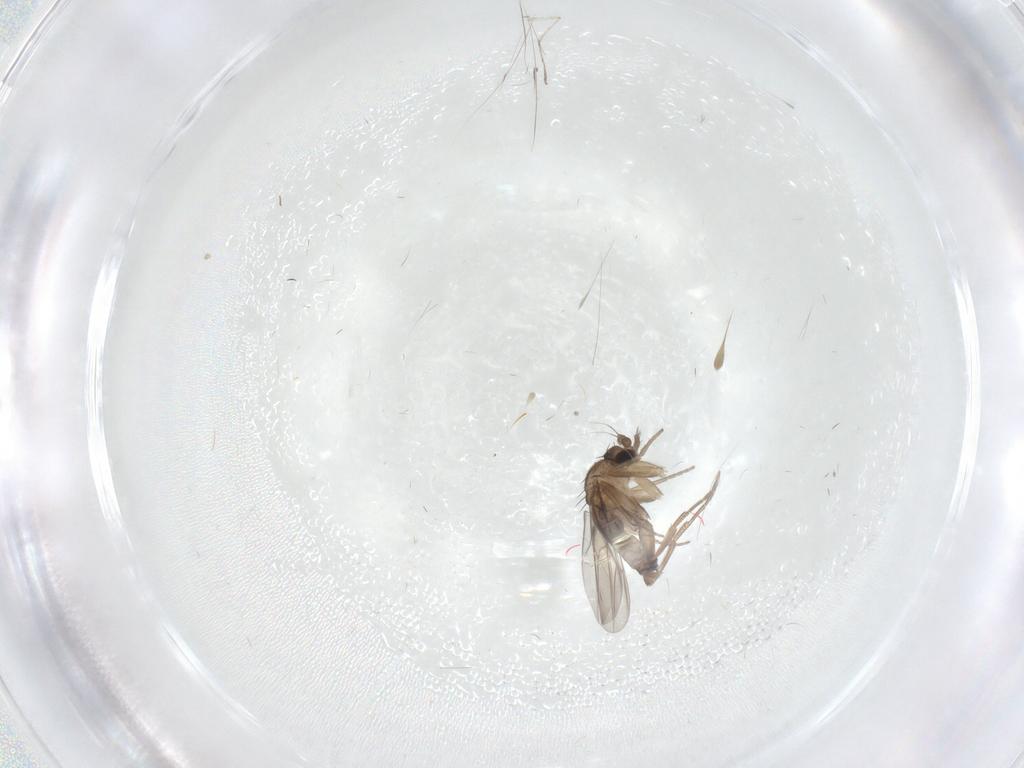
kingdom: Animalia
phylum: Arthropoda
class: Insecta
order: Diptera
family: Phoridae
